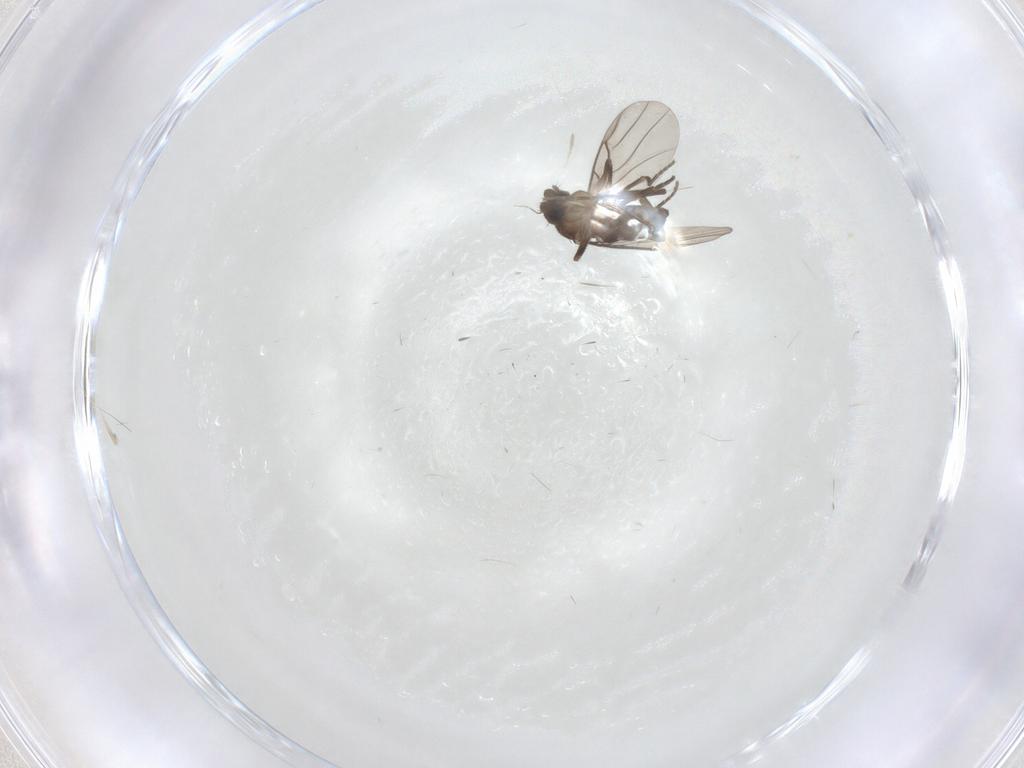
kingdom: Animalia
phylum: Arthropoda
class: Insecta
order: Diptera
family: Phoridae
